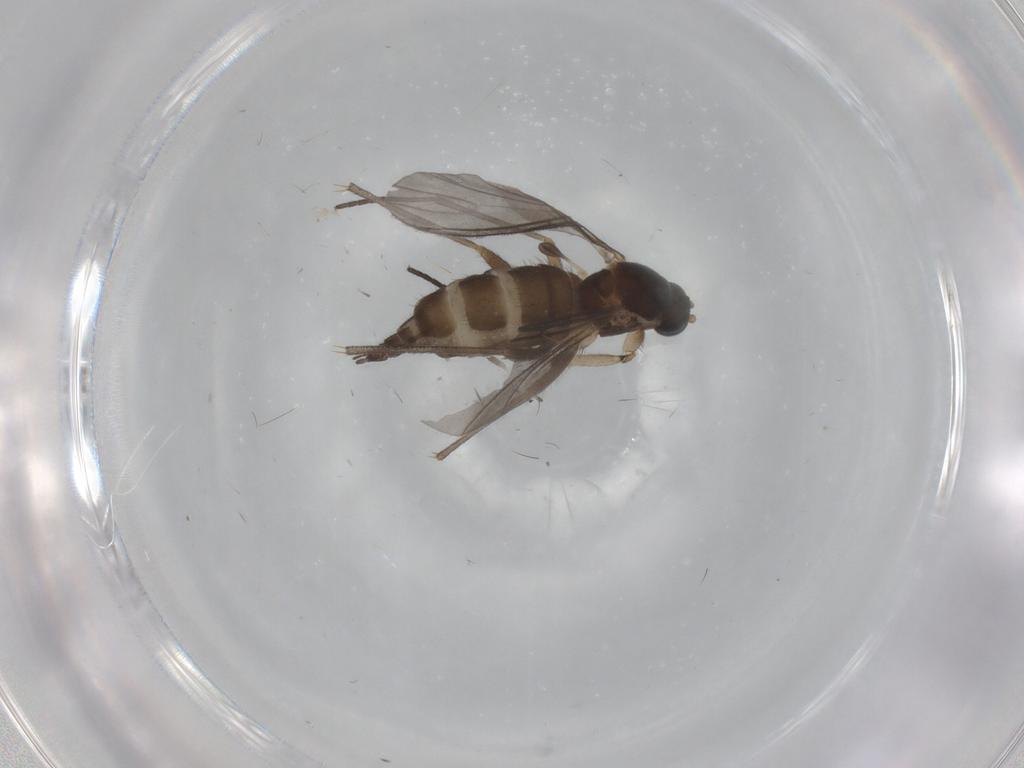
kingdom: Animalia
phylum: Arthropoda
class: Insecta
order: Diptera
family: Sciaridae
